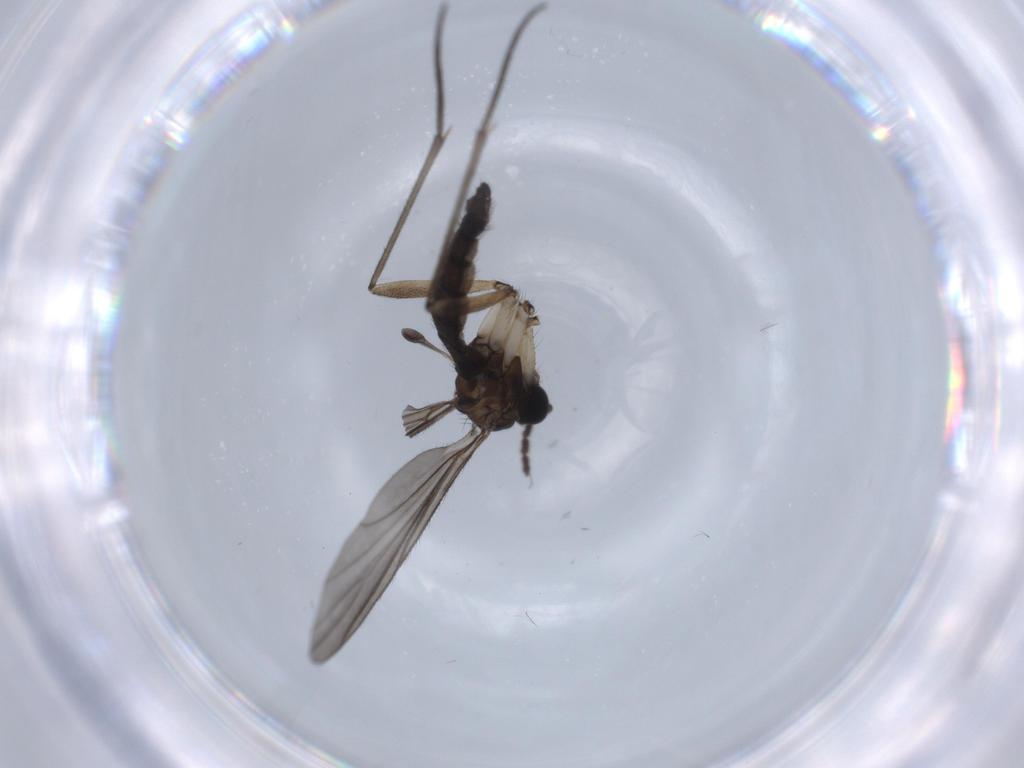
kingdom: Animalia
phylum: Arthropoda
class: Insecta
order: Diptera
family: Sciaridae
